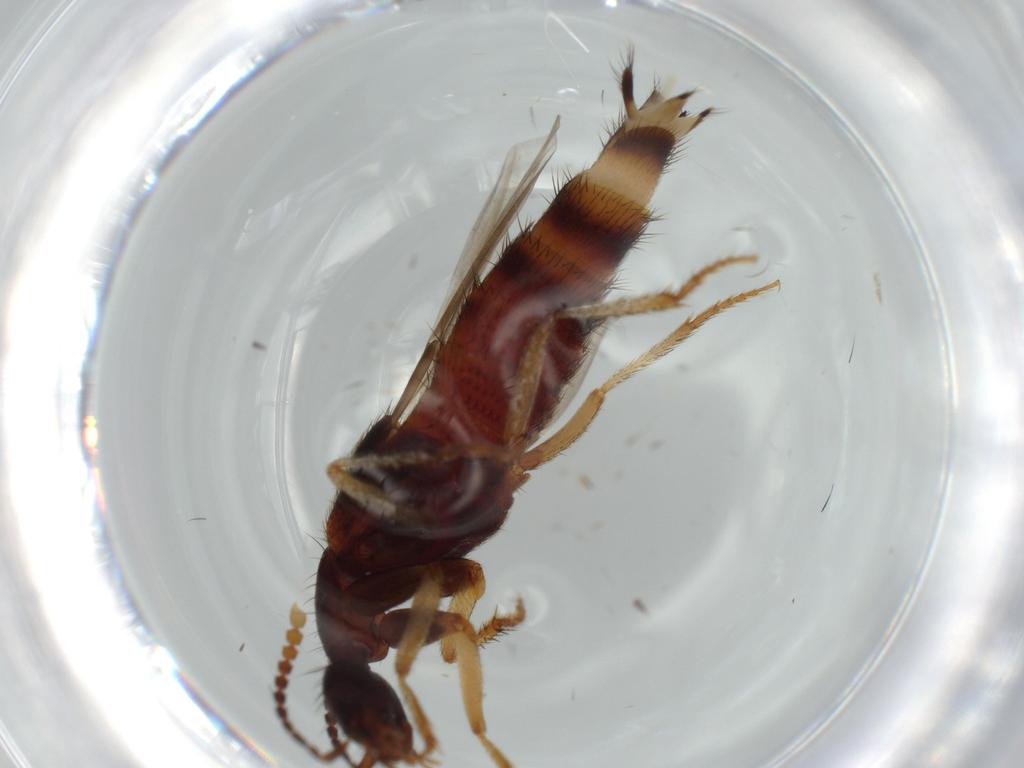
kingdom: Animalia
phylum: Arthropoda
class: Insecta
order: Coleoptera
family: Staphylinidae
